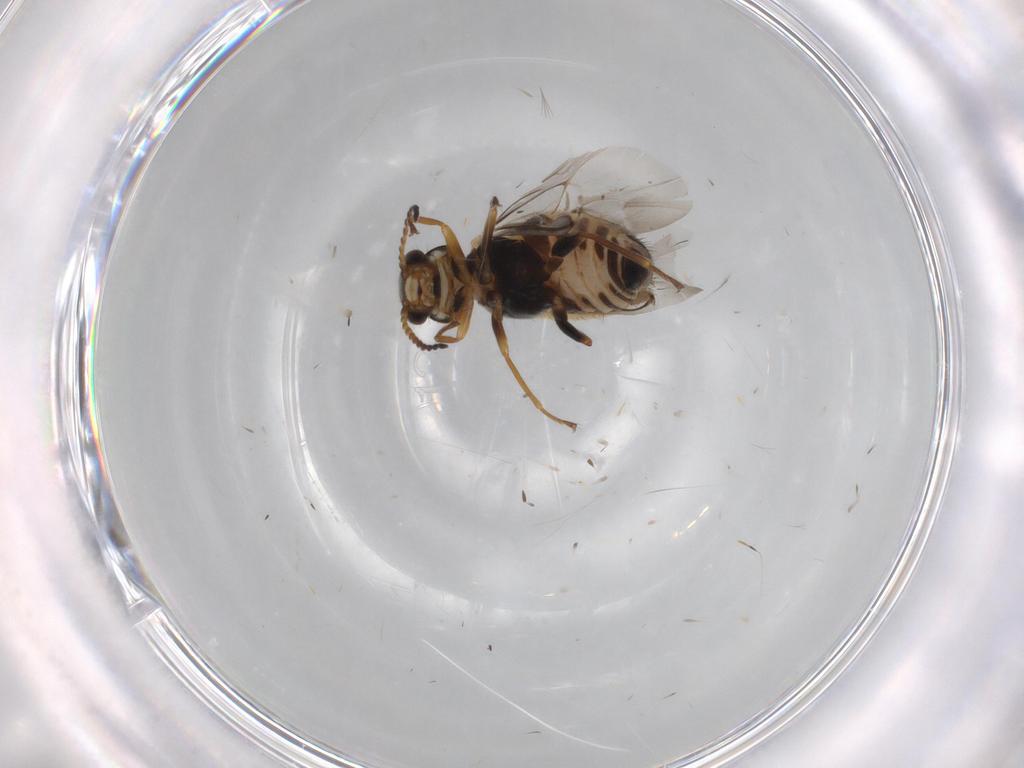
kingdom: Animalia
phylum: Arthropoda
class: Insecta
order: Coleoptera
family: Melyridae
